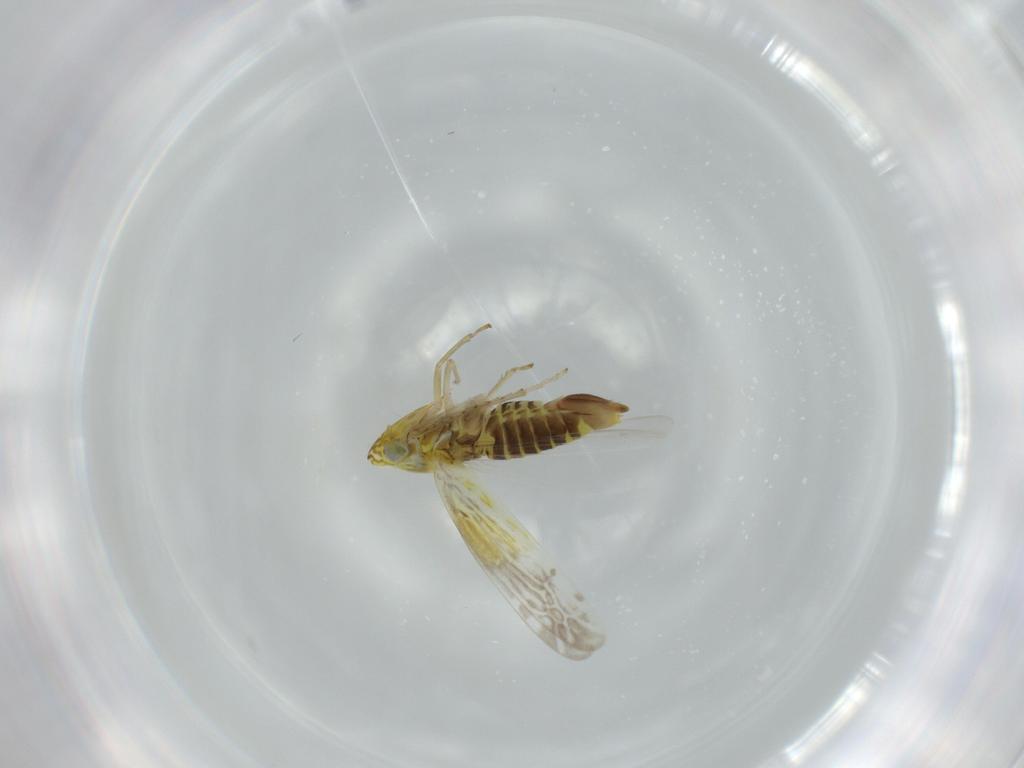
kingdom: Animalia
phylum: Arthropoda
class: Insecta
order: Hemiptera
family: Cicadellidae
